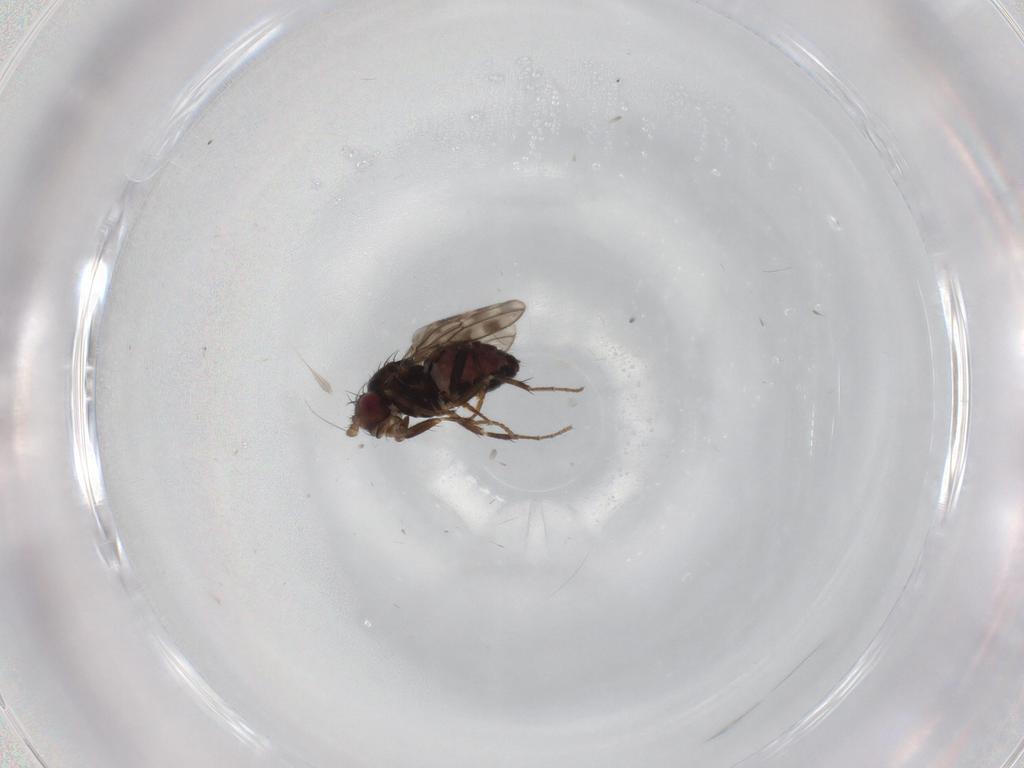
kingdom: Animalia
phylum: Arthropoda
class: Insecta
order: Diptera
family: Sphaeroceridae
